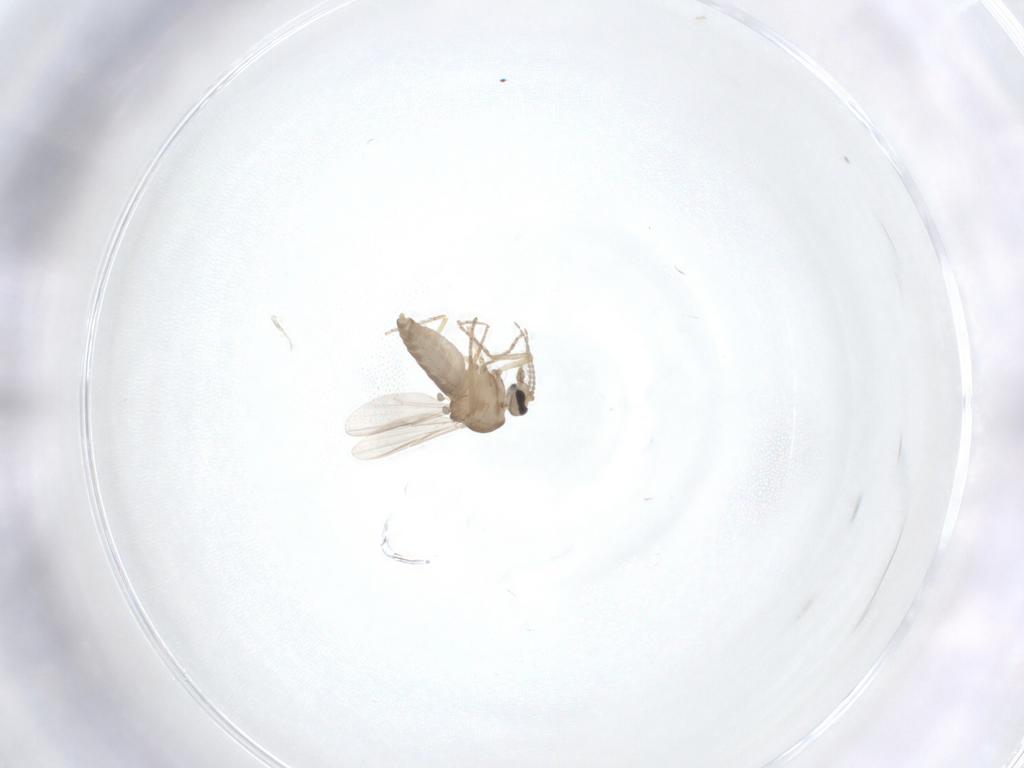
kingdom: Animalia
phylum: Arthropoda
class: Insecta
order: Diptera
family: Ceratopogonidae
